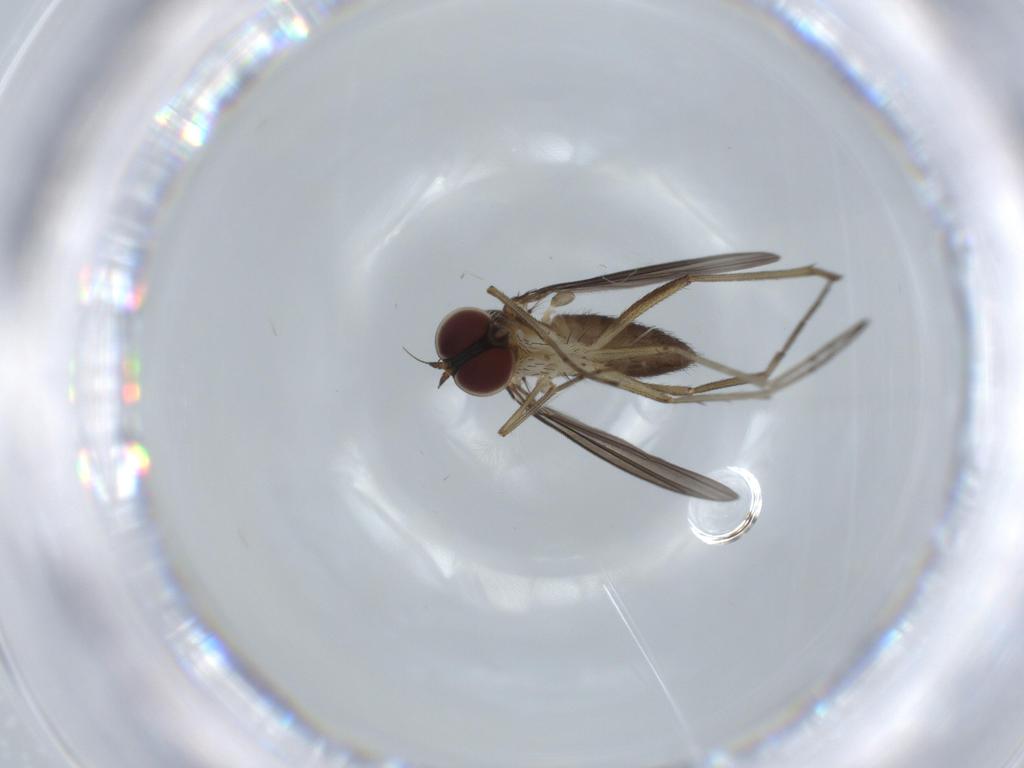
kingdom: Animalia
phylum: Arthropoda
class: Insecta
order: Diptera
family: Dolichopodidae
